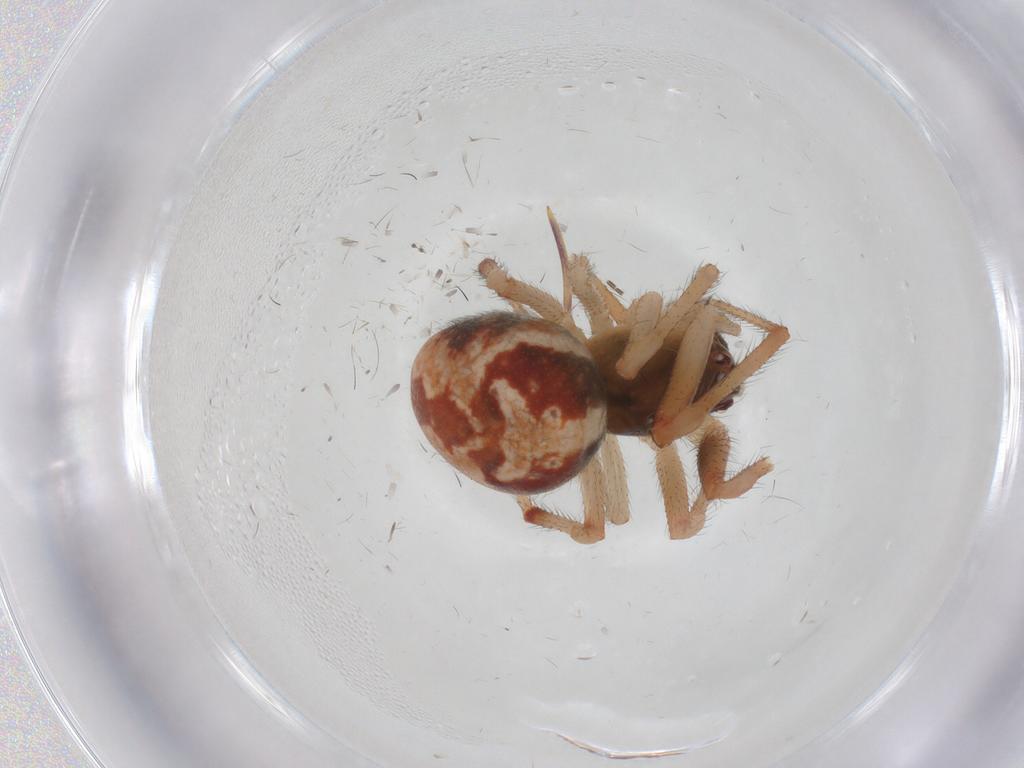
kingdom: Animalia
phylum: Arthropoda
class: Arachnida
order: Araneae
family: Theridiidae
